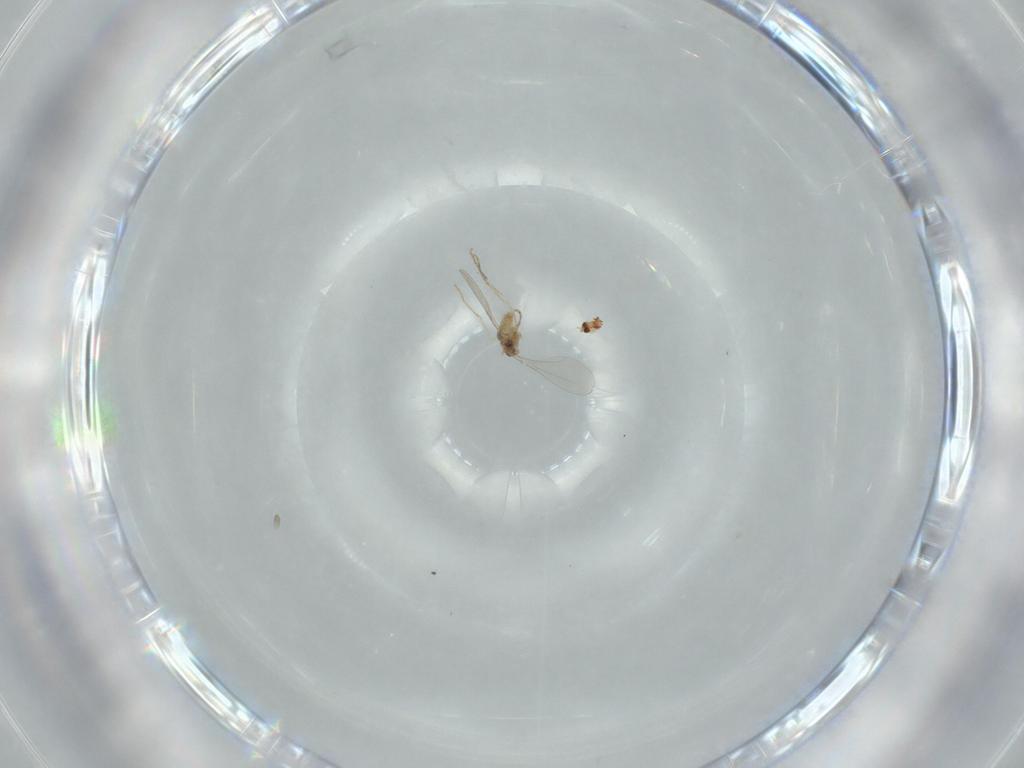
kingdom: Animalia
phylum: Arthropoda
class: Insecta
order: Diptera
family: Cecidomyiidae
